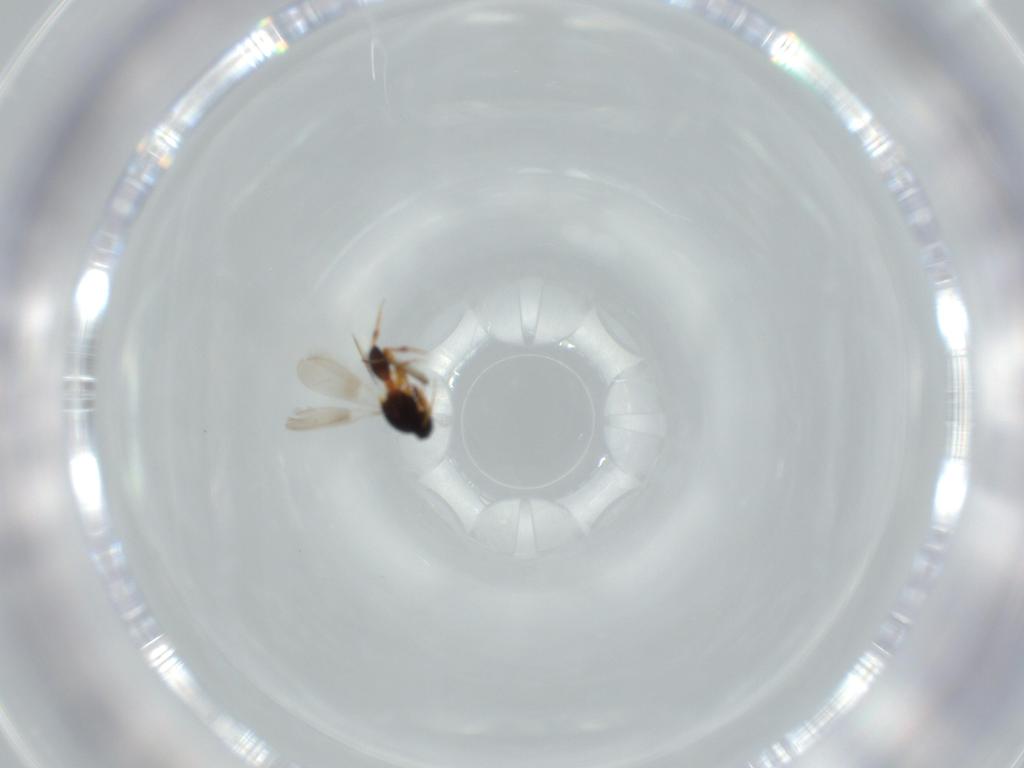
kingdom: Animalia
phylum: Arthropoda
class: Insecta
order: Hymenoptera
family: Platygastridae
